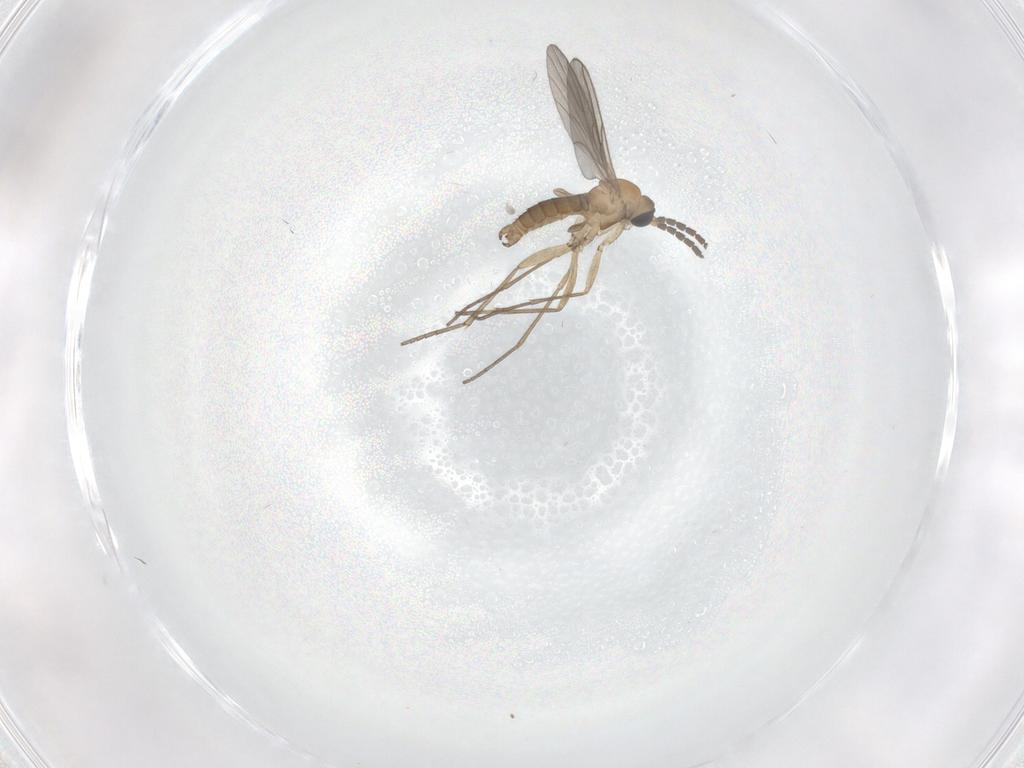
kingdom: Animalia
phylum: Arthropoda
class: Insecta
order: Diptera
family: Sciaridae
